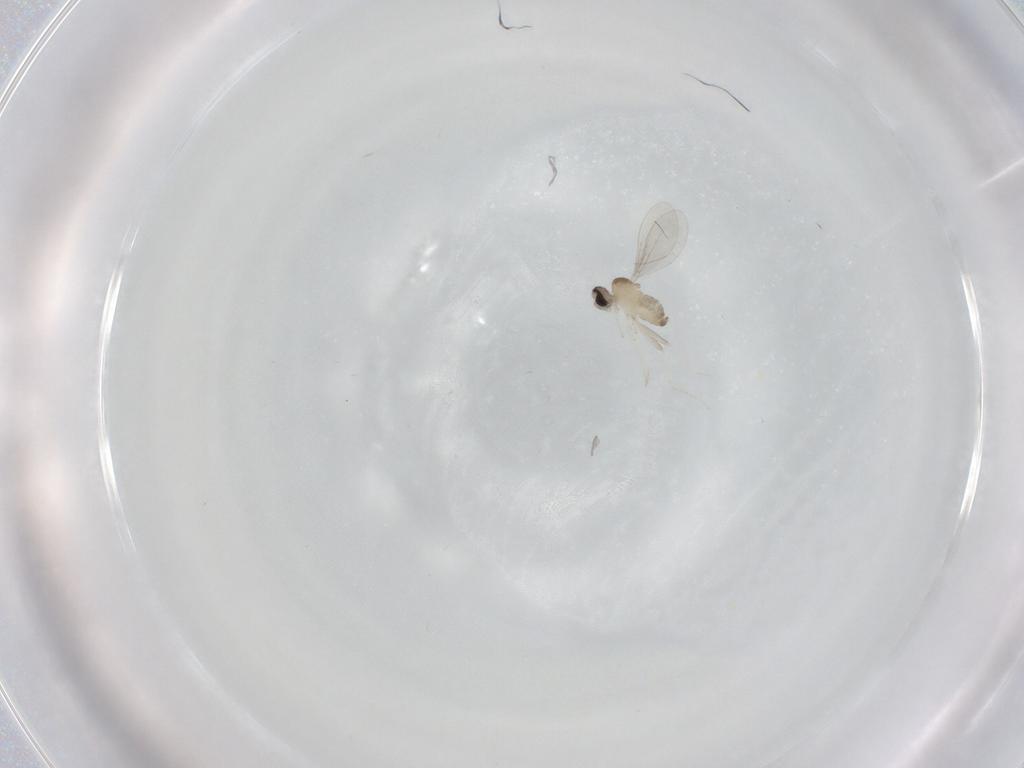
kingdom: Animalia
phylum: Arthropoda
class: Insecta
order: Diptera
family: Cecidomyiidae
